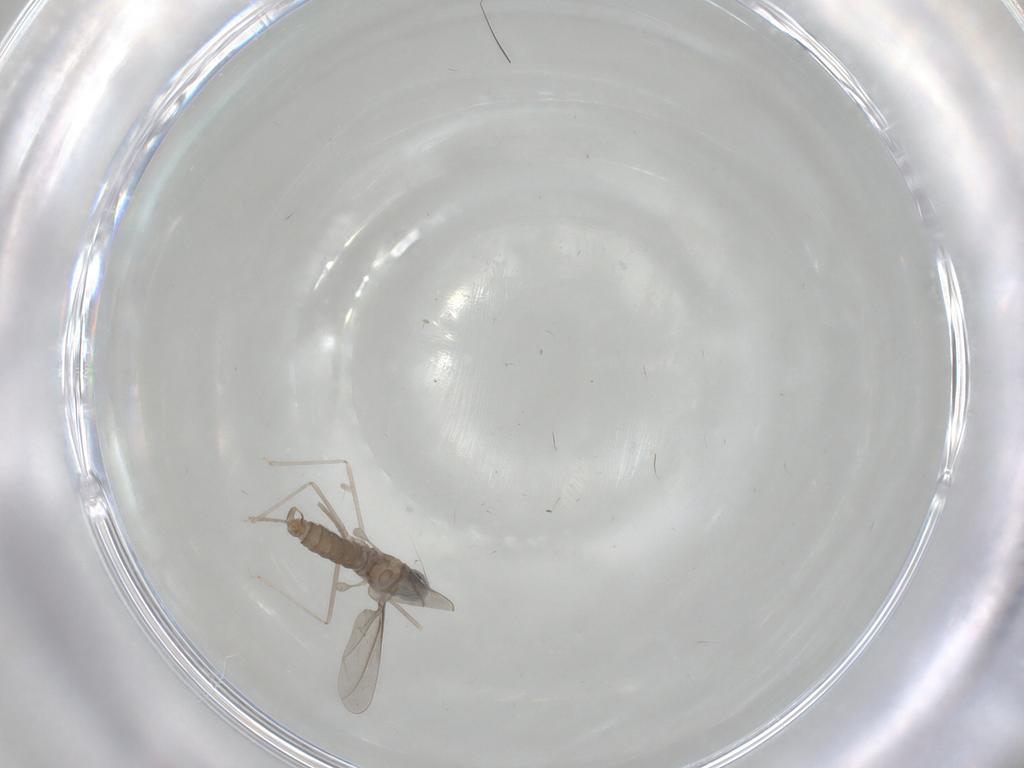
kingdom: Animalia
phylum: Arthropoda
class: Insecta
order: Diptera
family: Cecidomyiidae
